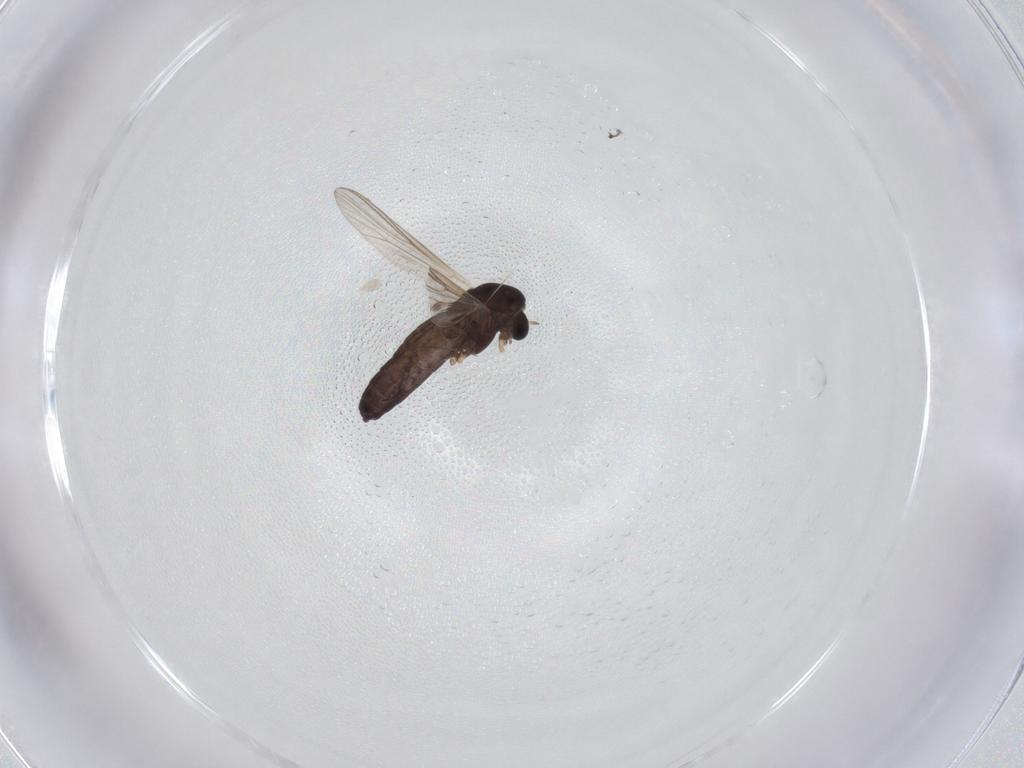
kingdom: Animalia
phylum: Arthropoda
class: Insecta
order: Diptera
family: Chironomidae
